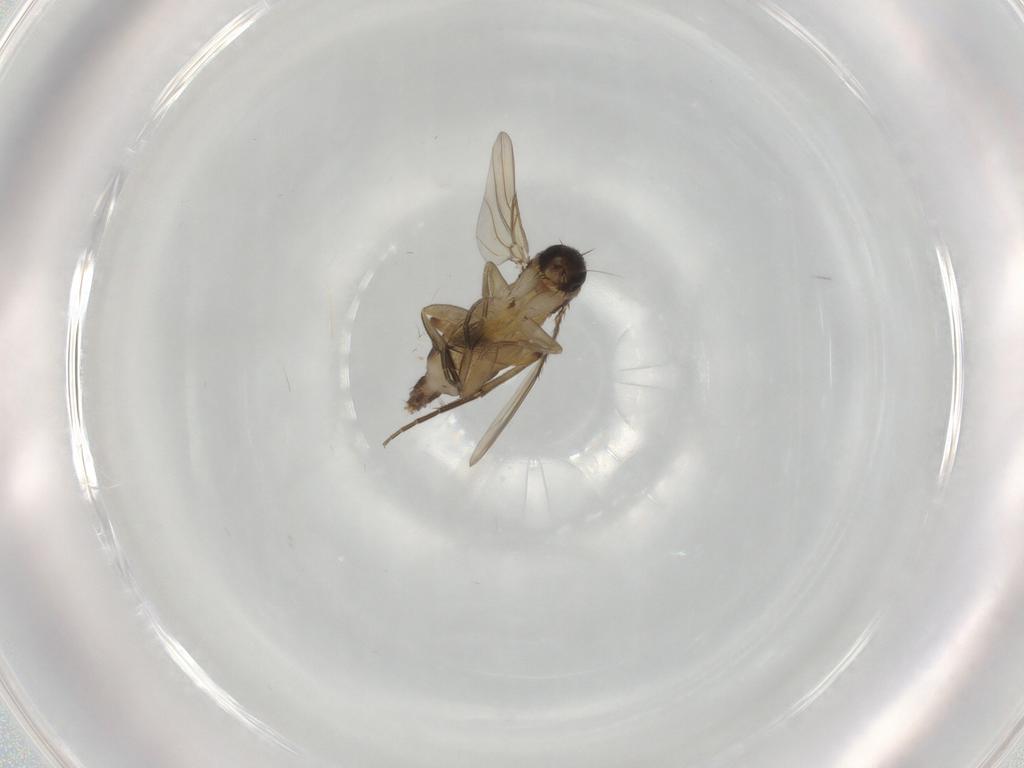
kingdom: Animalia
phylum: Arthropoda
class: Insecta
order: Diptera
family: Phoridae
